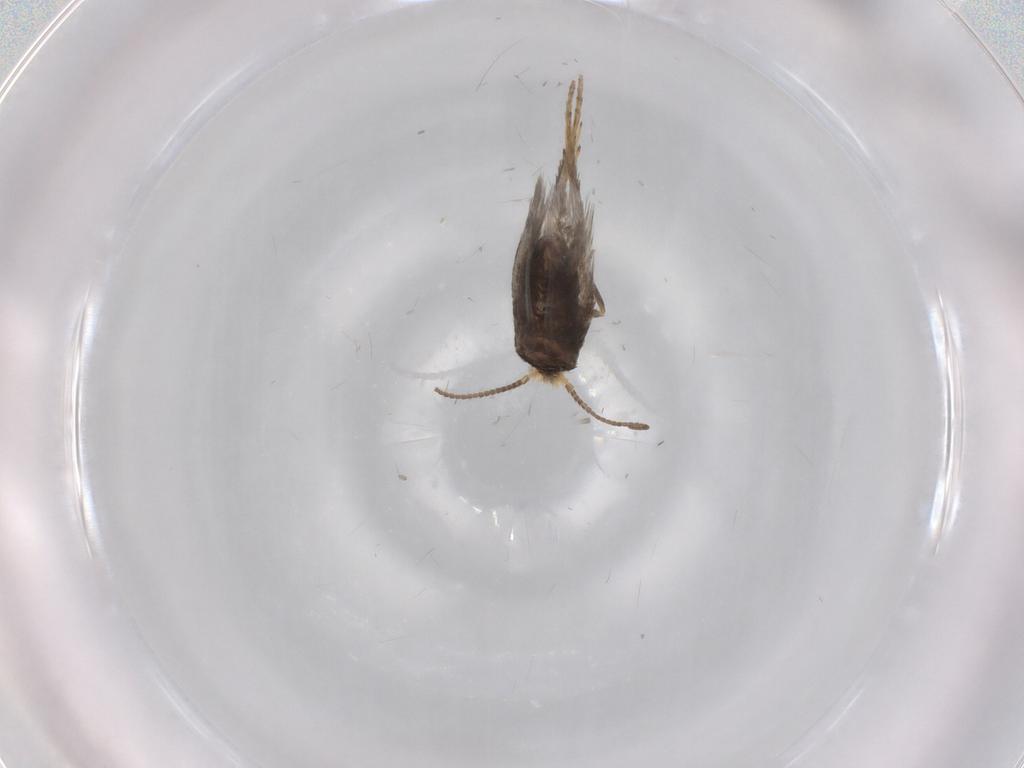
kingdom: Animalia
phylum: Arthropoda
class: Insecta
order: Lepidoptera
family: Nepticulidae
